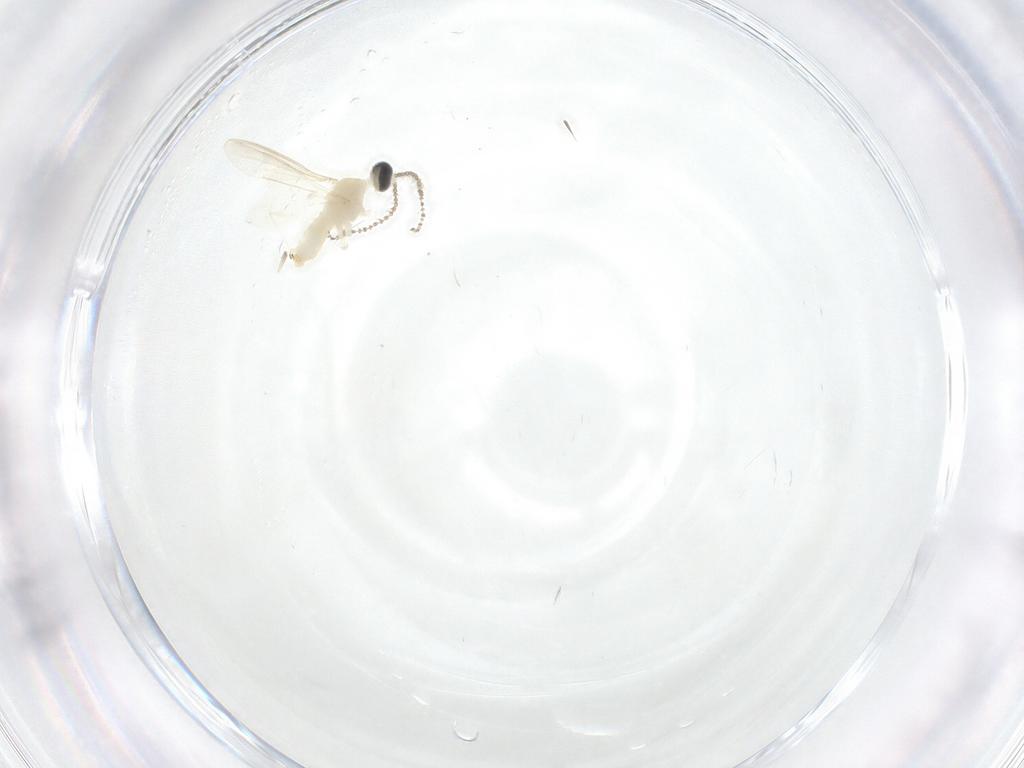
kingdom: Animalia
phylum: Arthropoda
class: Insecta
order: Diptera
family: Cecidomyiidae
